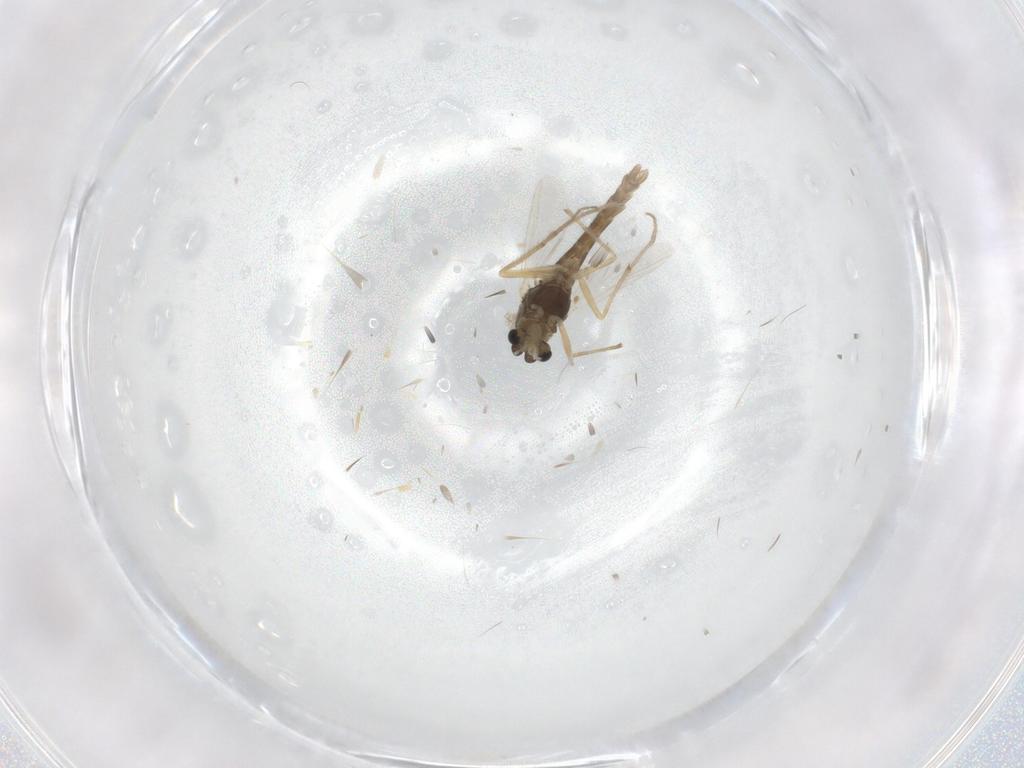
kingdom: Animalia
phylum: Arthropoda
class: Insecta
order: Diptera
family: Chironomidae
